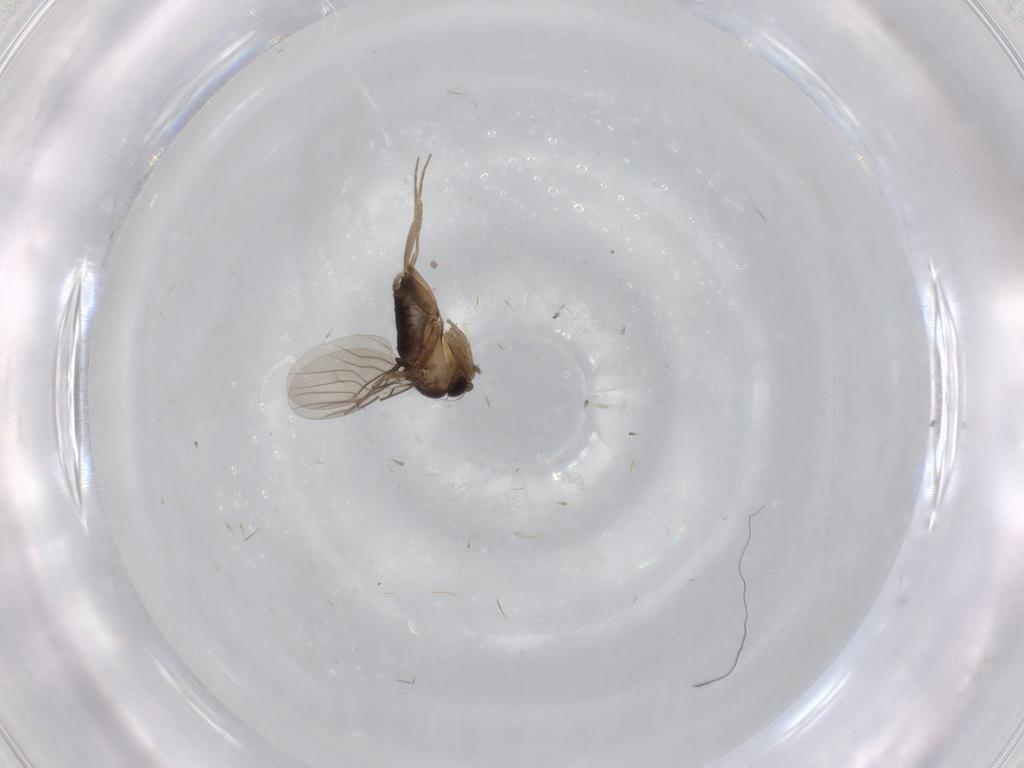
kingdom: Animalia
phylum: Arthropoda
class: Insecta
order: Diptera
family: Phoridae
